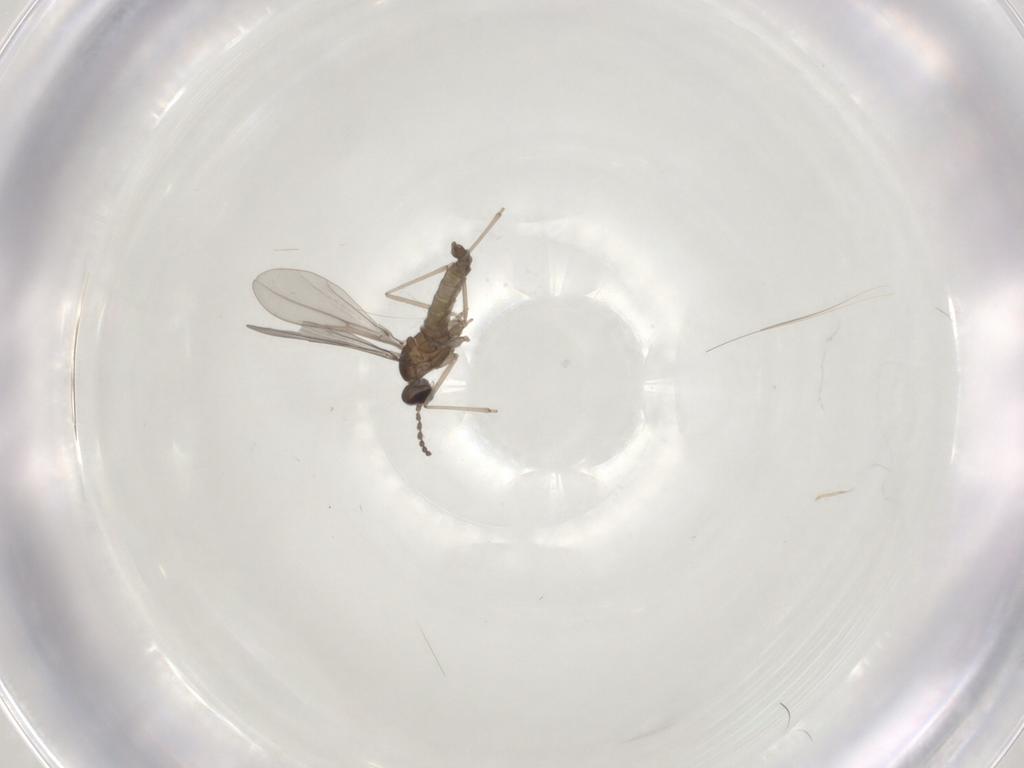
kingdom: Animalia
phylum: Arthropoda
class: Insecta
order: Diptera
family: Cecidomyiidae
